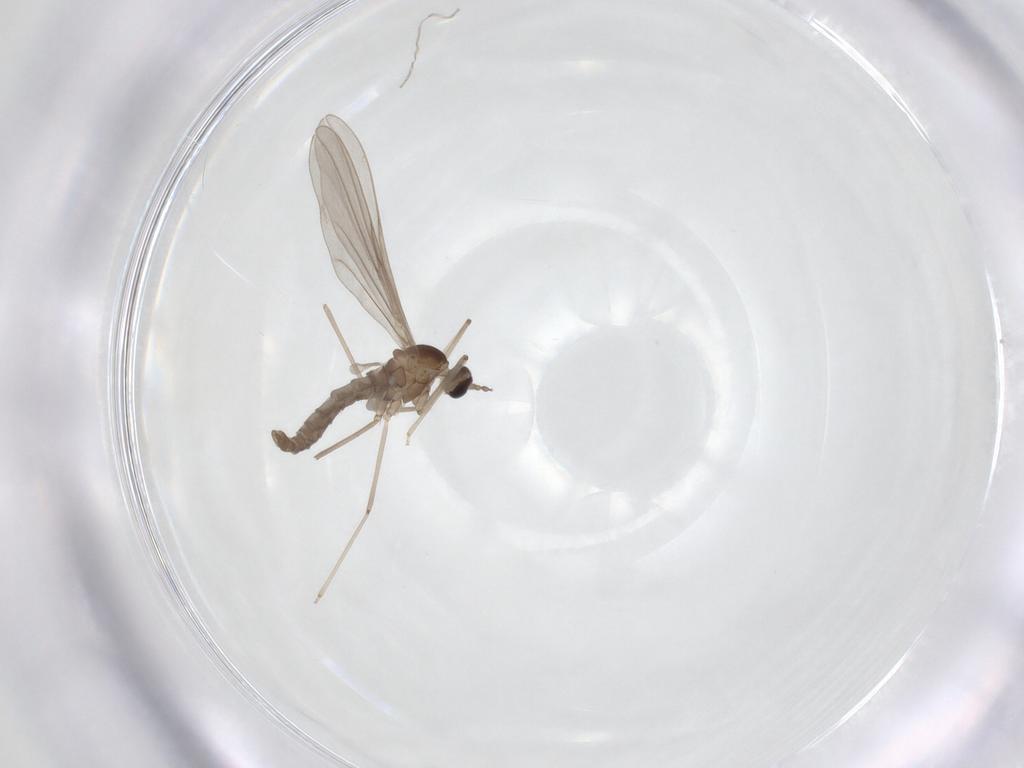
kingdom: Animalia
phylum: Arthropoda
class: Insecta
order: Diptera
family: Cecidomyiidae
